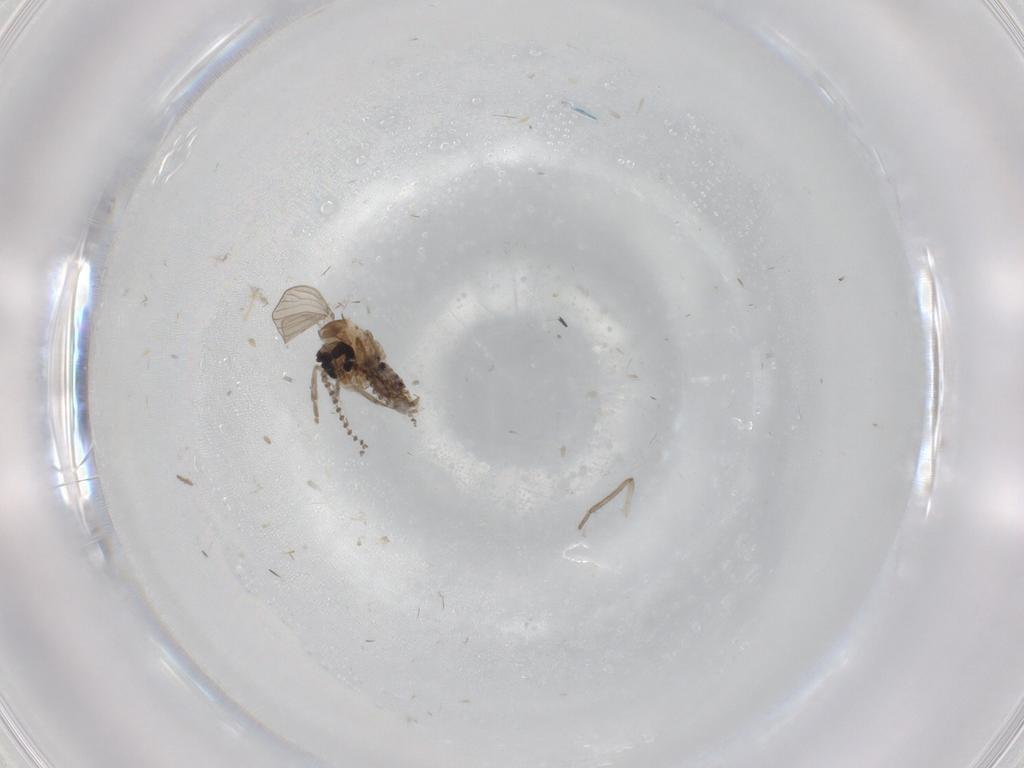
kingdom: Animalia
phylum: Arthropoda
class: Insecta
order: Diptera
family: Psychodidae
